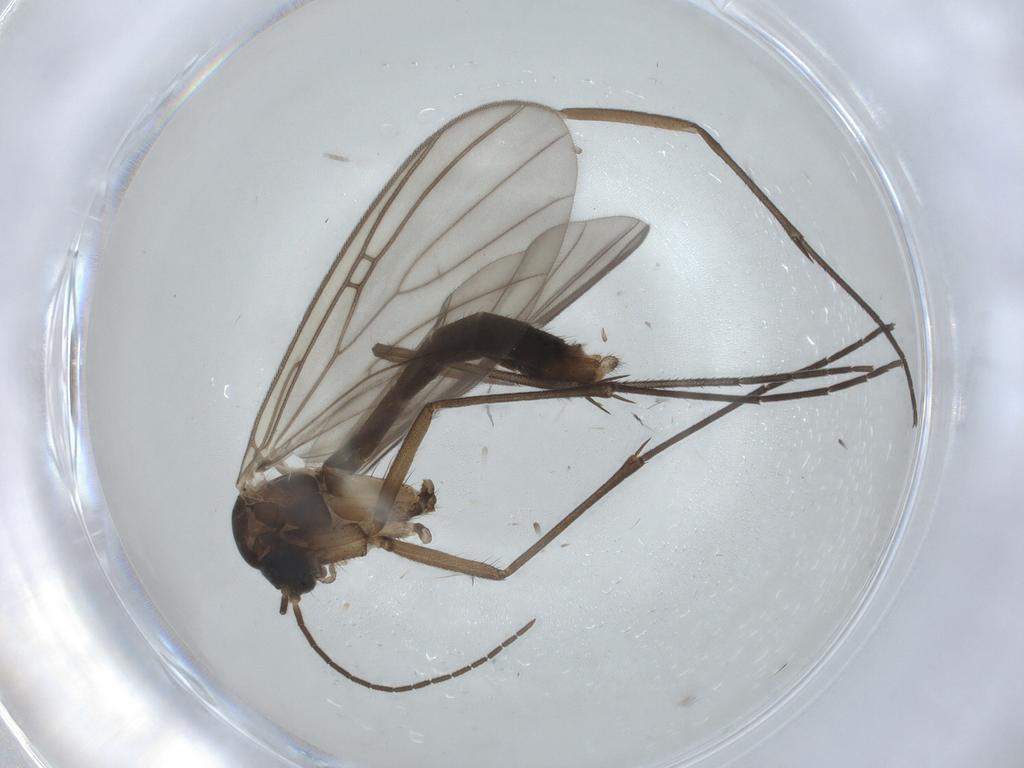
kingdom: Animalia
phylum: Arthropoda
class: Insecta
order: Diptera
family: Mycetophilidae
